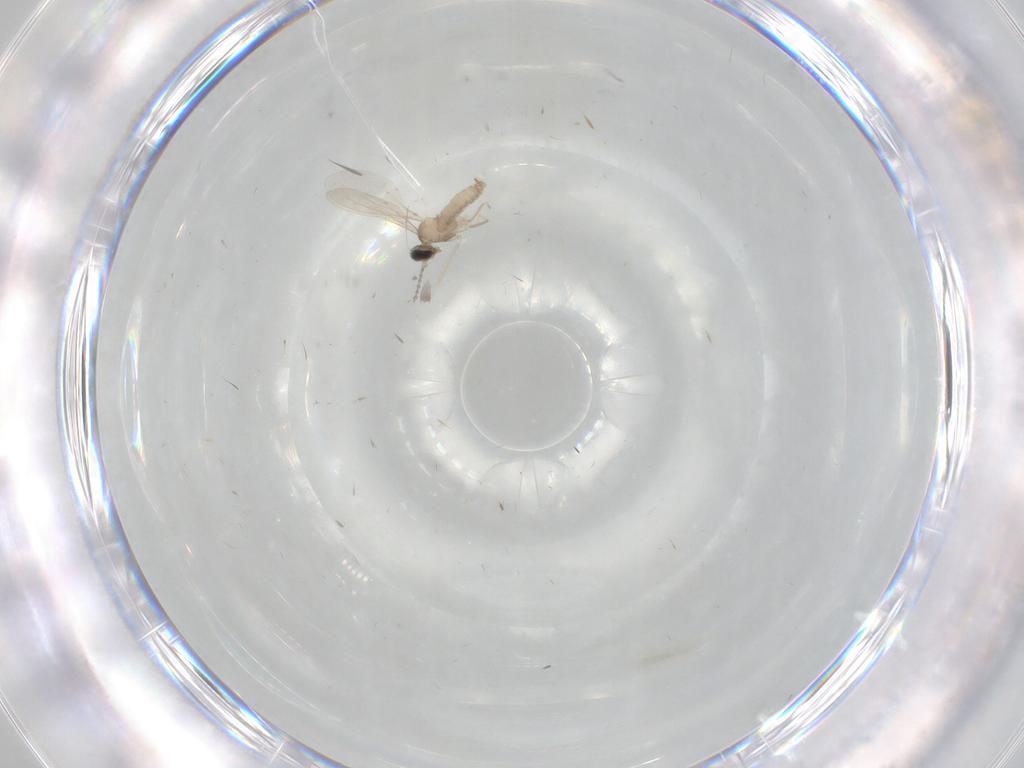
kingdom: Animalia
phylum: Arthropoda
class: Insecta
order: Diptera
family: Cecidomyiidae
